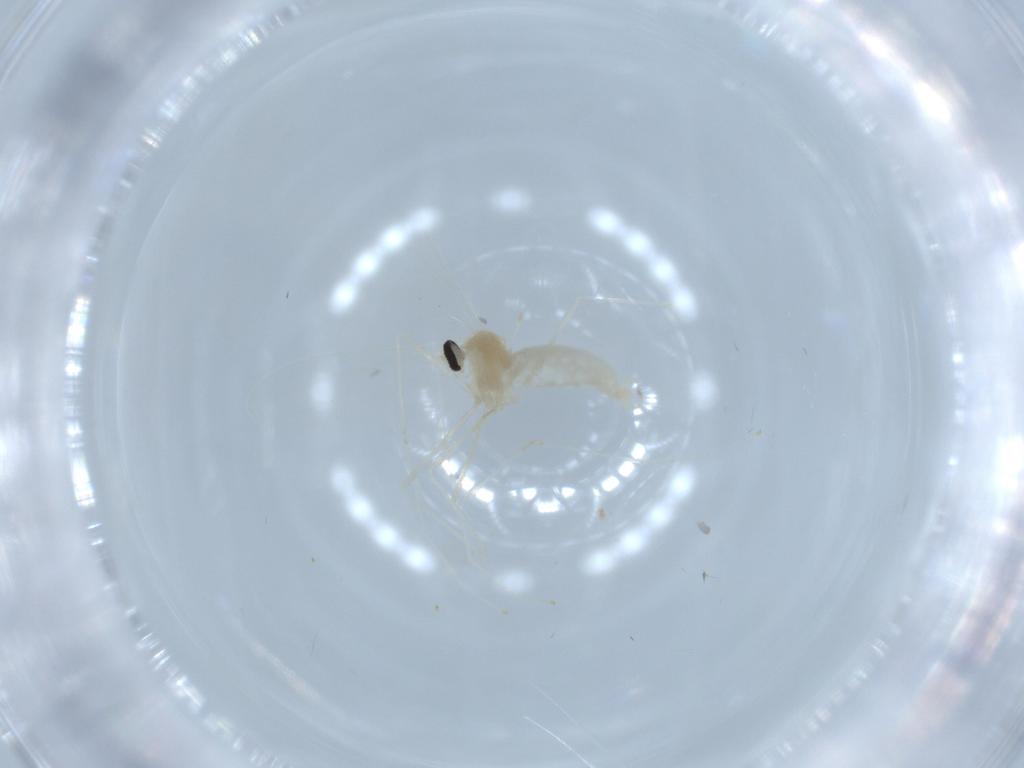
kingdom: Animalia
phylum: Arthropoda
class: Insecta
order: Diptera
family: Cecidomyiidae
